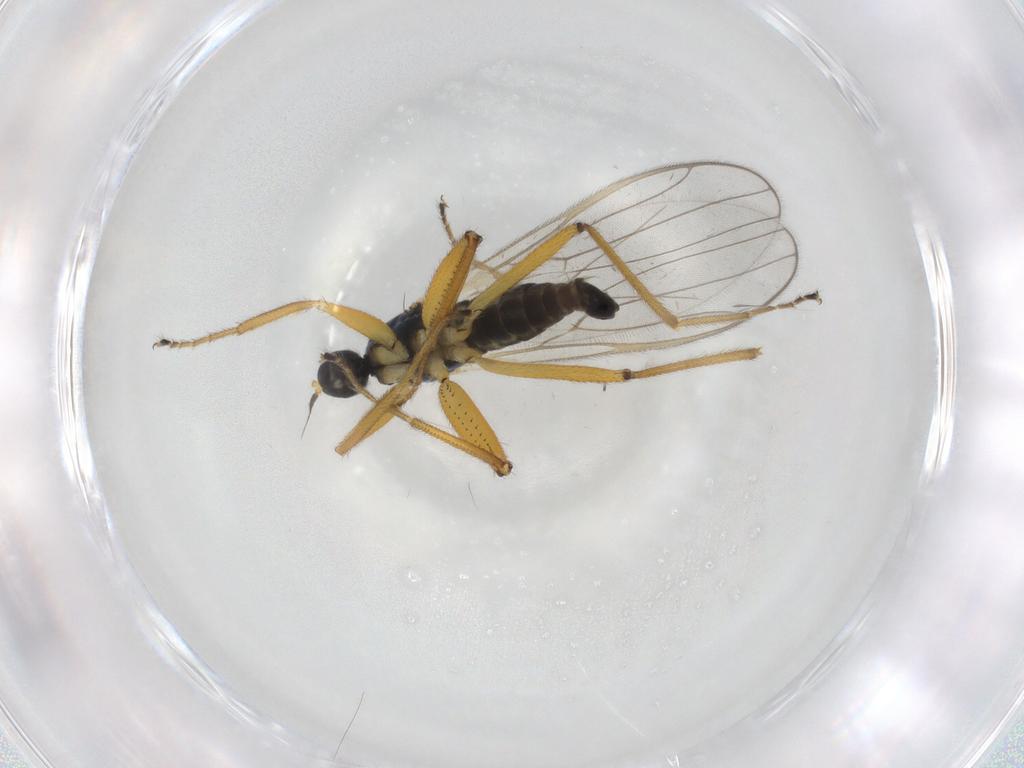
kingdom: Animalia
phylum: Arthropoda
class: Insecta
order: Diptera
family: Hybotidae
